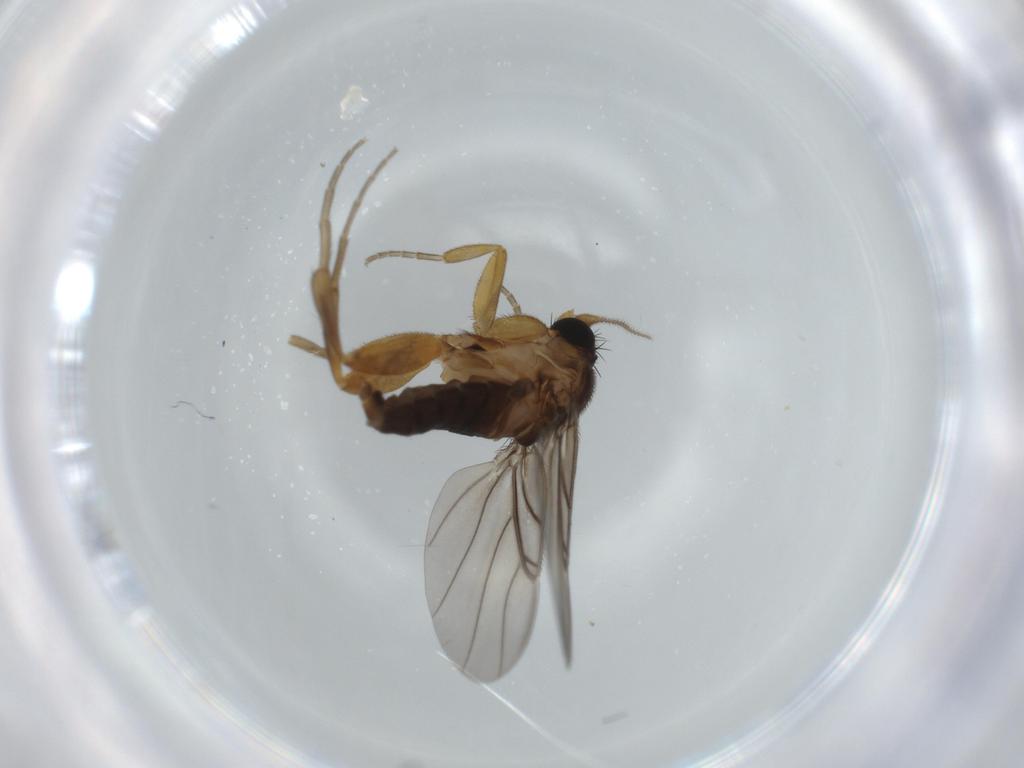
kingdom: Animalia
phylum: Arthropoda
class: Insecta
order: Diptera
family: Phoridae
